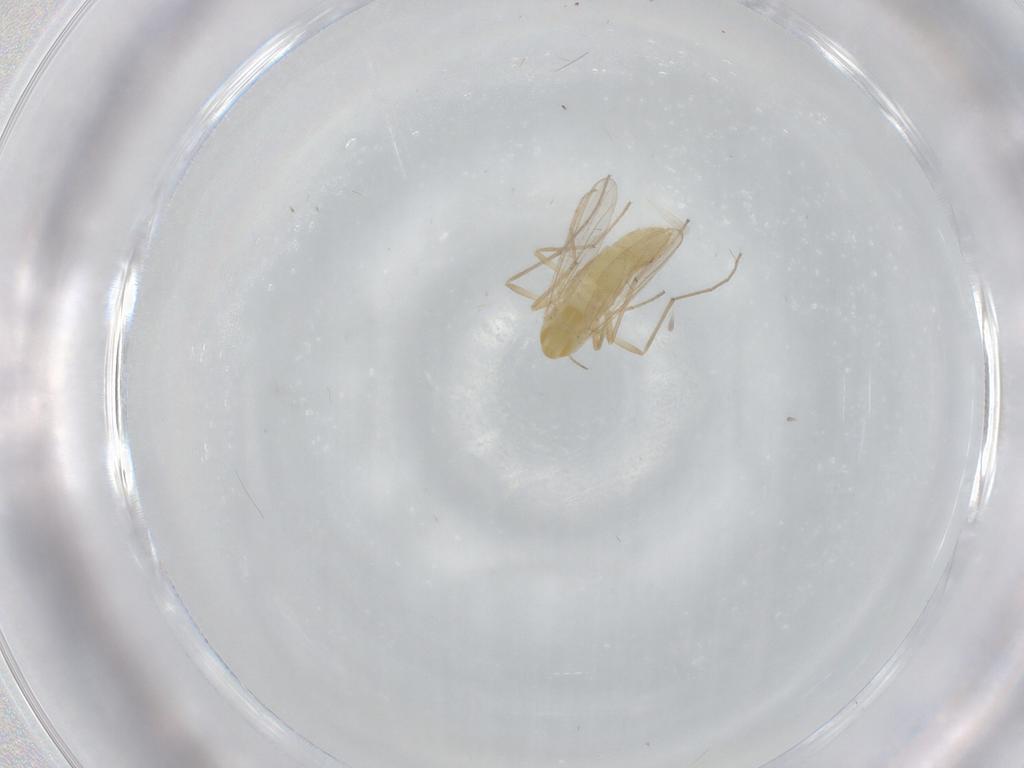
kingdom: Animalia
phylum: Arthropoda
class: Insecta
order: Diptera
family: Chironomidae
